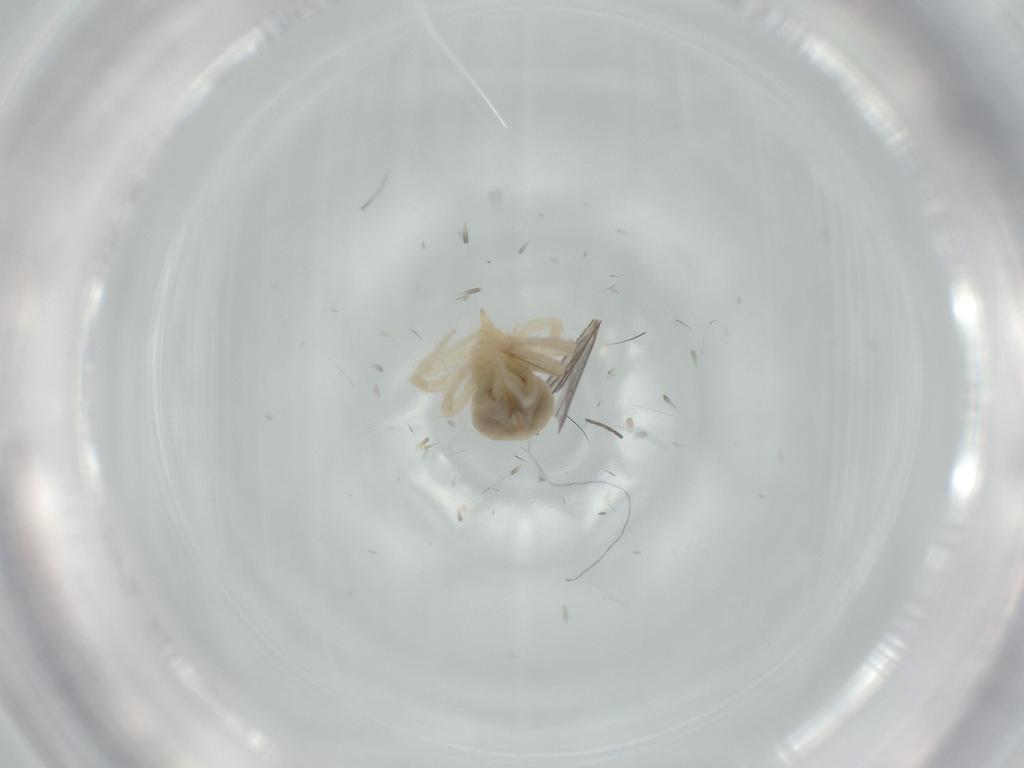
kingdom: Animalia
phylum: Arthropoda
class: Arachnida
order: Trombidiformes
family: Anystidae
